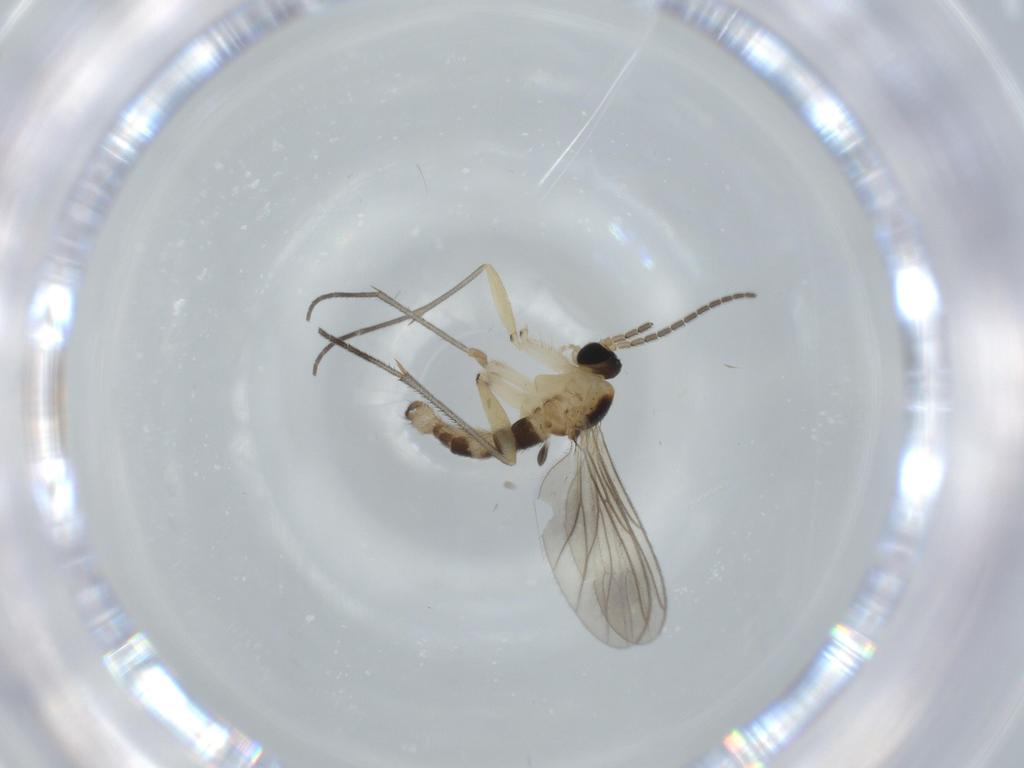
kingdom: Animalia
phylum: Arthropoda
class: Insecta
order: Diptera
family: Sciaridae
